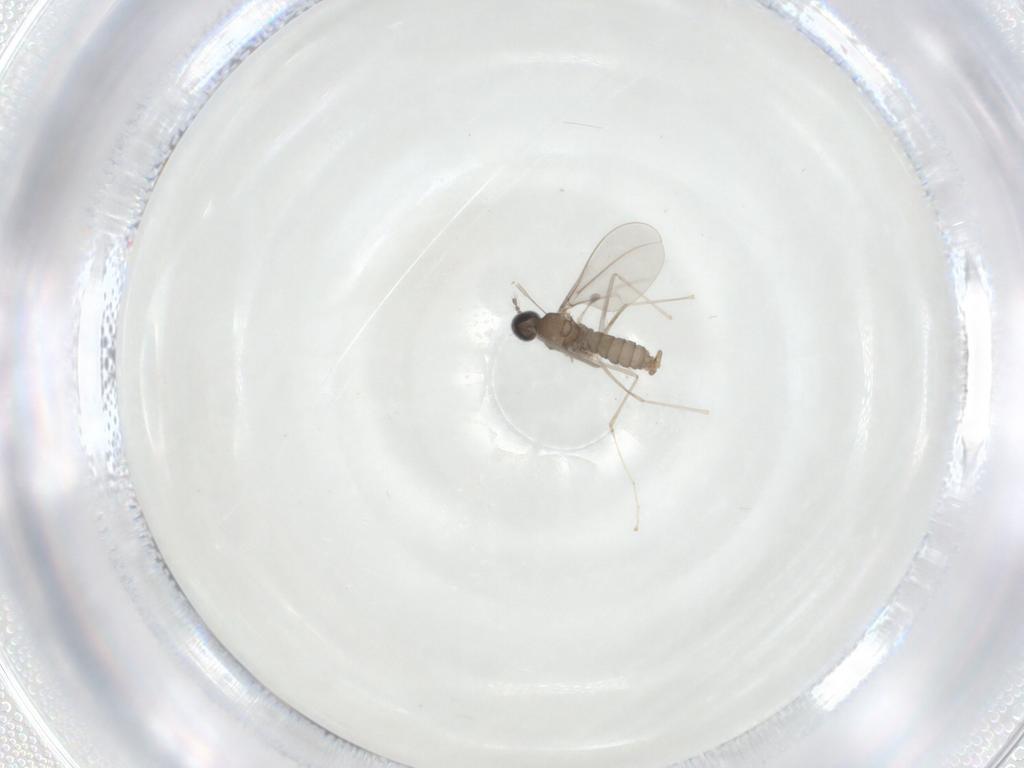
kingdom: Animalia
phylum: Arthropoda
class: Insecta
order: Diptera
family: Cecidomyiidae
